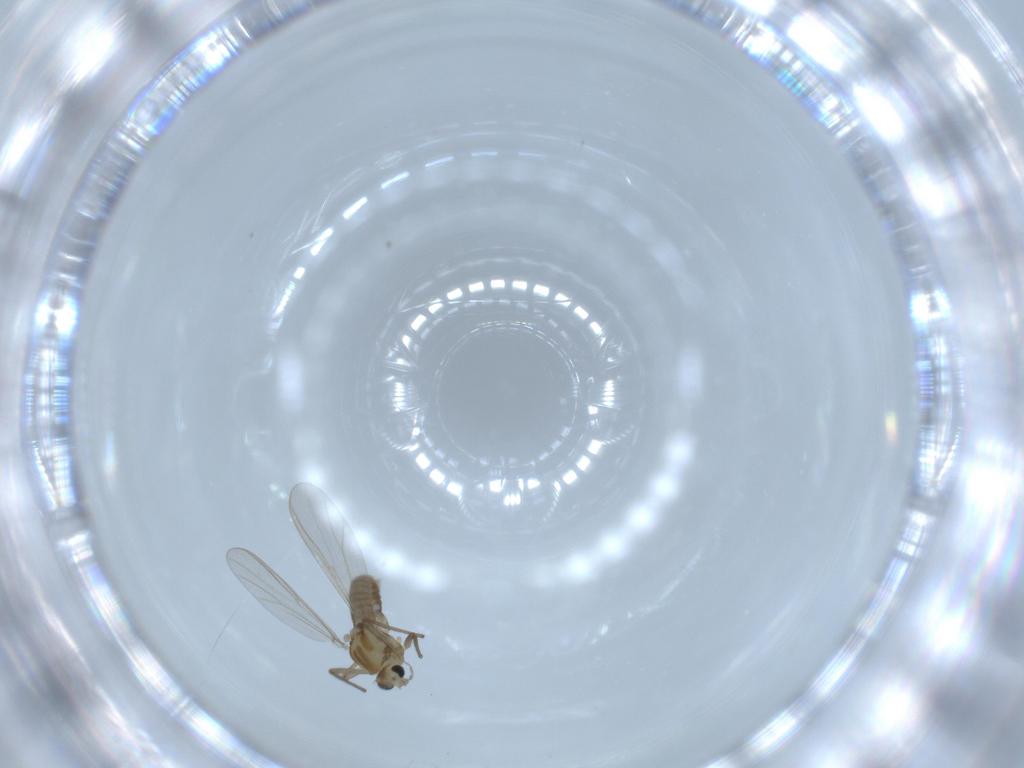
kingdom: Animalia
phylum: Arthropoda
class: Insecta
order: Diptera
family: Chironomidae
